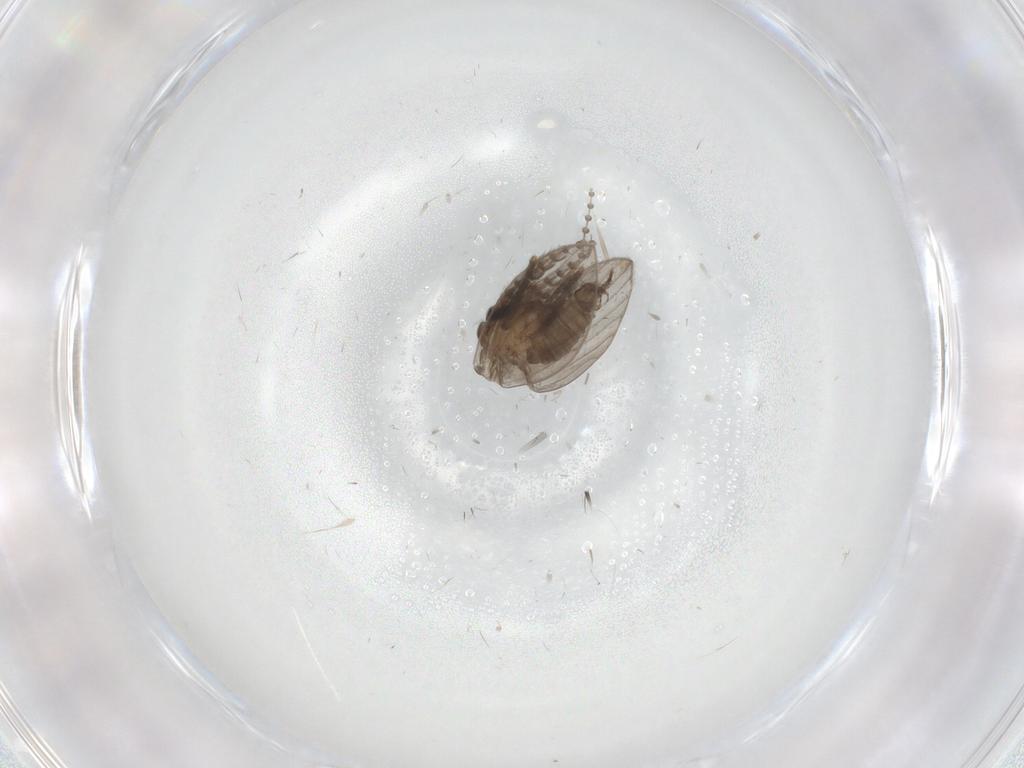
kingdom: Animalia
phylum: Arthropoda
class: Insecta
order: Diptera
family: Psychodidae
